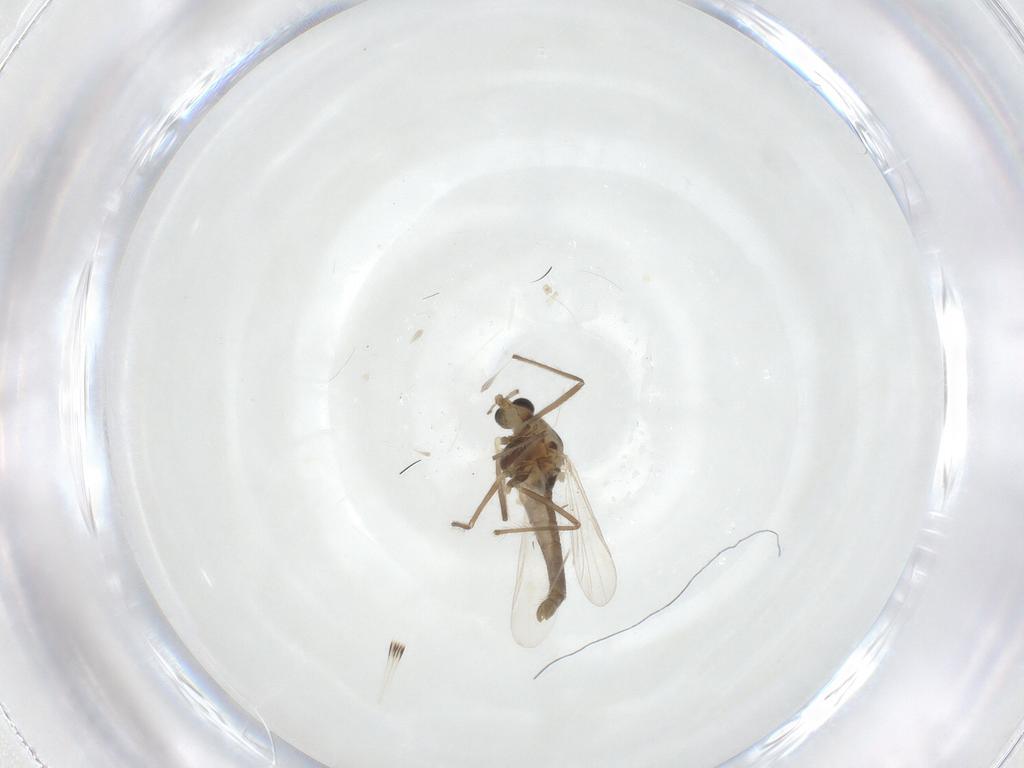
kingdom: Animalia
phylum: Arthropoda
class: Insecta
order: Diptera
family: Chironomidae
